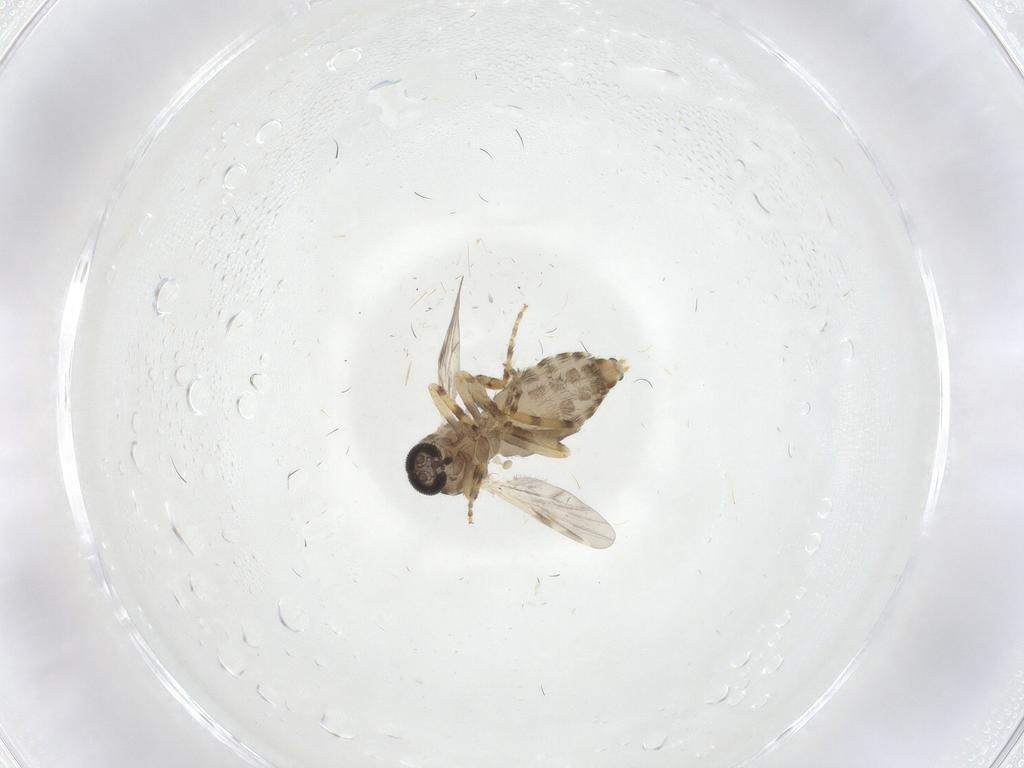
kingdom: Animalia
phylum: Arthropoda
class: Insecta
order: Diptera
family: Ceratopogonidae
